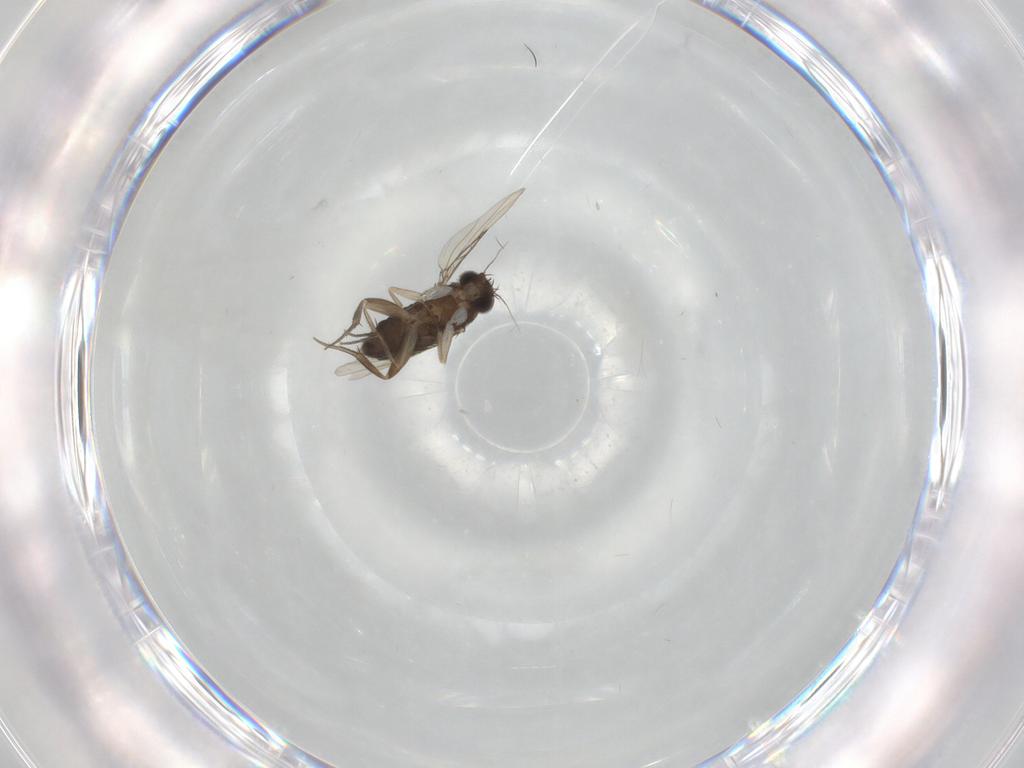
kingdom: Animalia
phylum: Arthropoda
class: Insecta
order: Diptera
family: Phoridae
